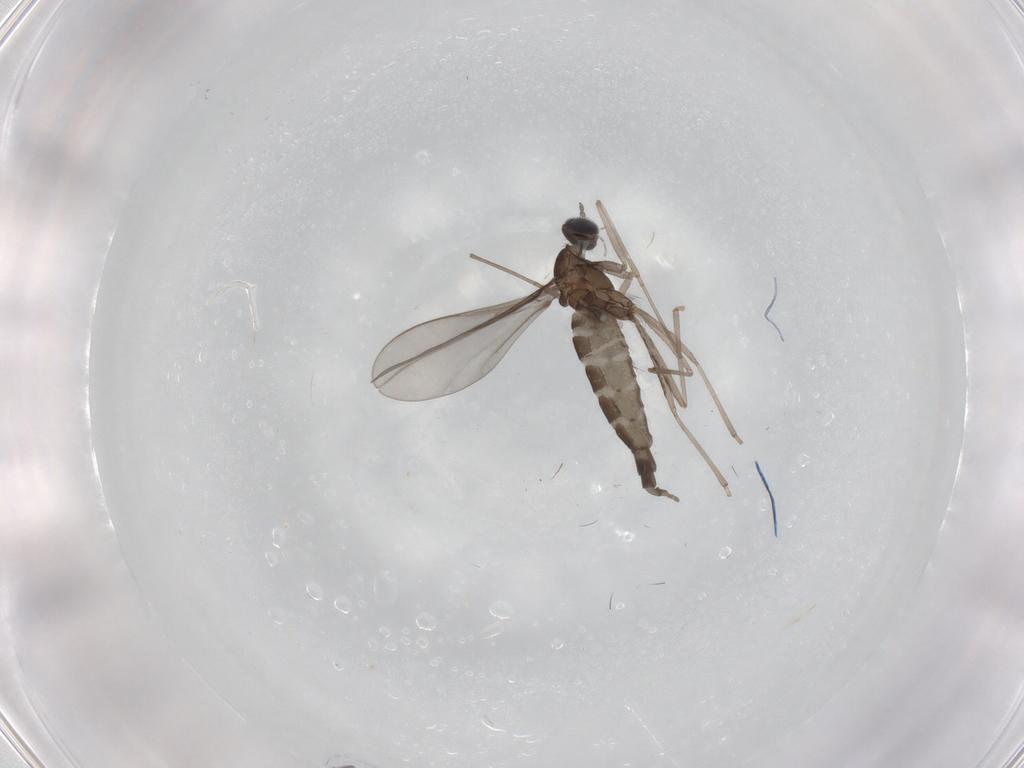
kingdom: Animalia
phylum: Arthropoda
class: Insecta
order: Diptera
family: Cecidomyiidae
